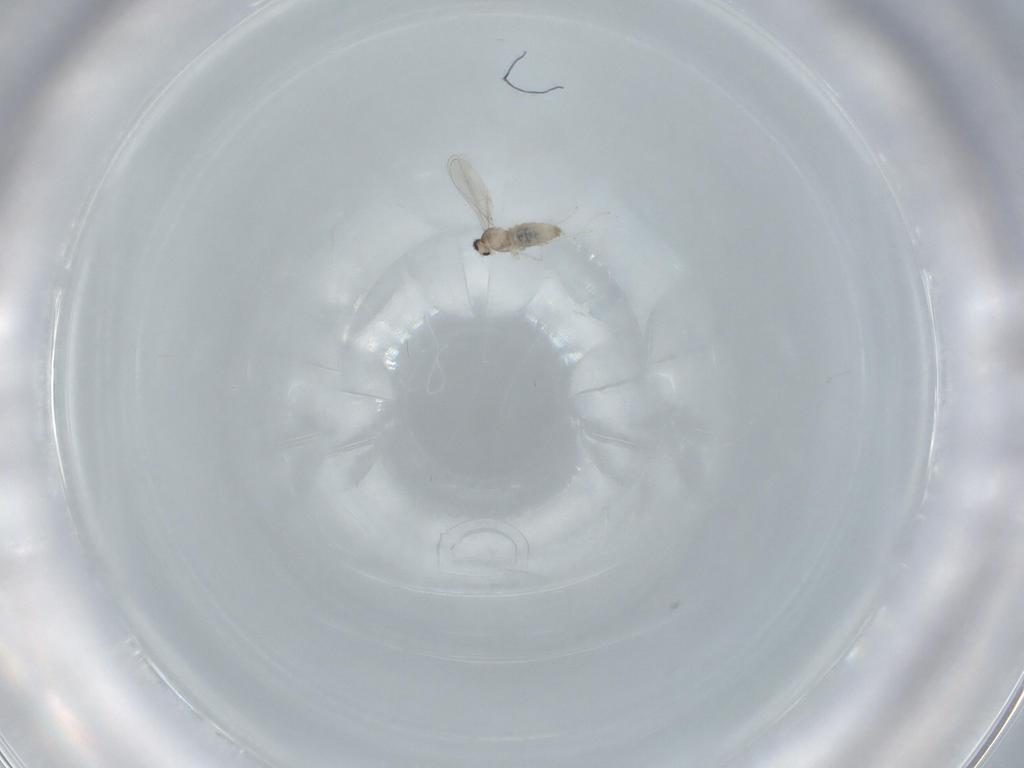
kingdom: Animalia
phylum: Arthropoda
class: Insecta
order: Diptera
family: Cecidomyiidae
